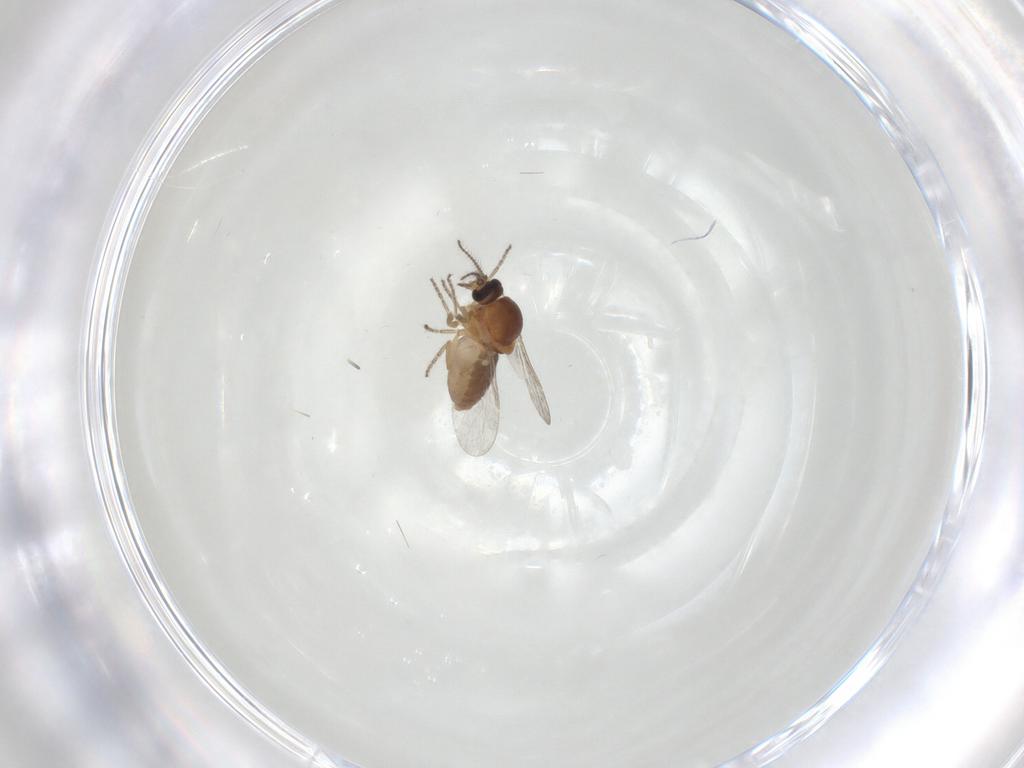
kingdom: Animalia
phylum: Arthropoda
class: Insecta
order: Diptera
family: Ceratopogonidae
